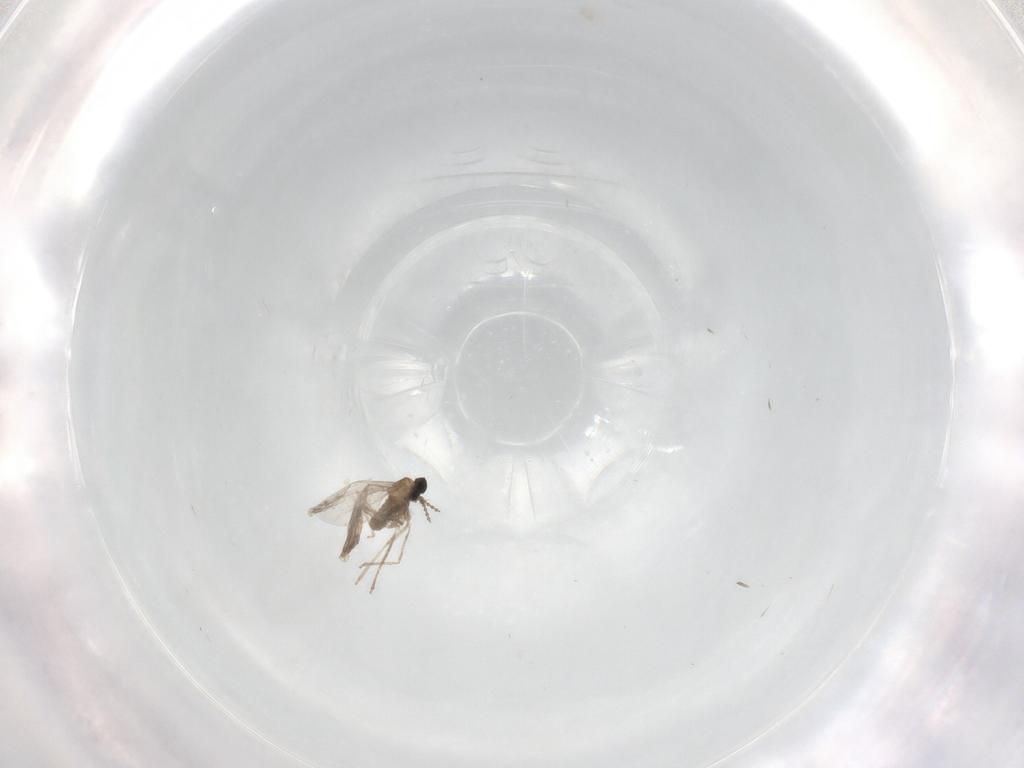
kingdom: Animalia
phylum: Arthropoda
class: Insecta
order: Diptera
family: Cecidomyiidae
